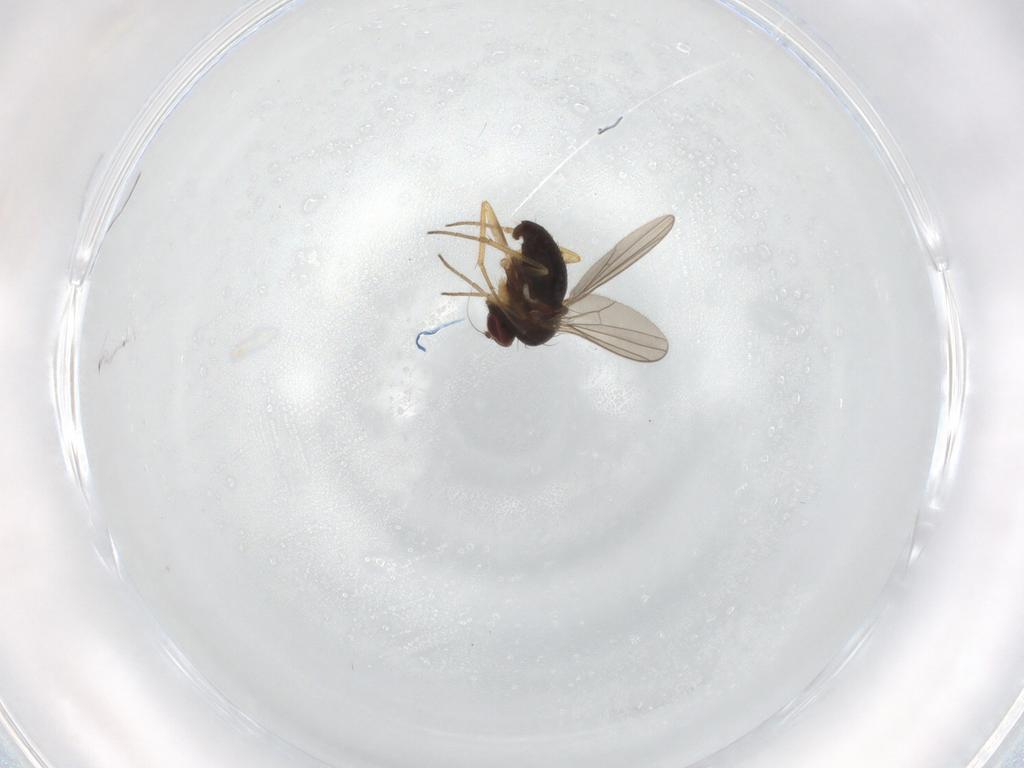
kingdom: Animalia
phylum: Arthropoda
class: Insecta
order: Diptera
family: Dolichopodidae
